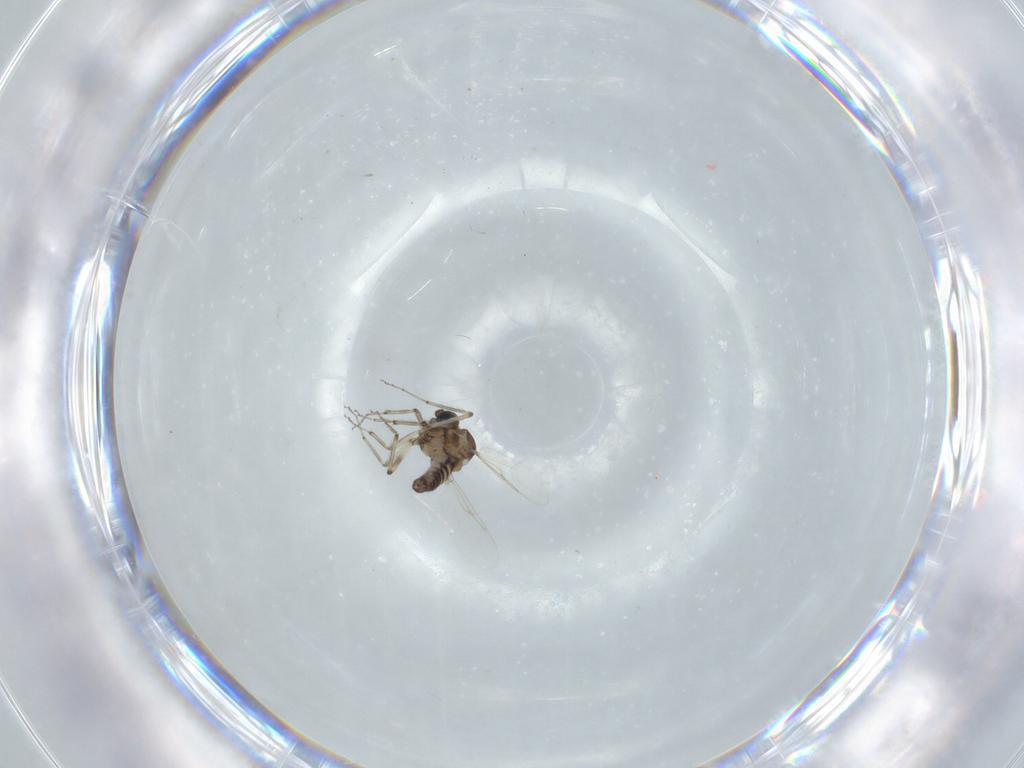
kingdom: Animalia
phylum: Arthropoda
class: Insecta
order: Diptera
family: Ceratopogonidae
